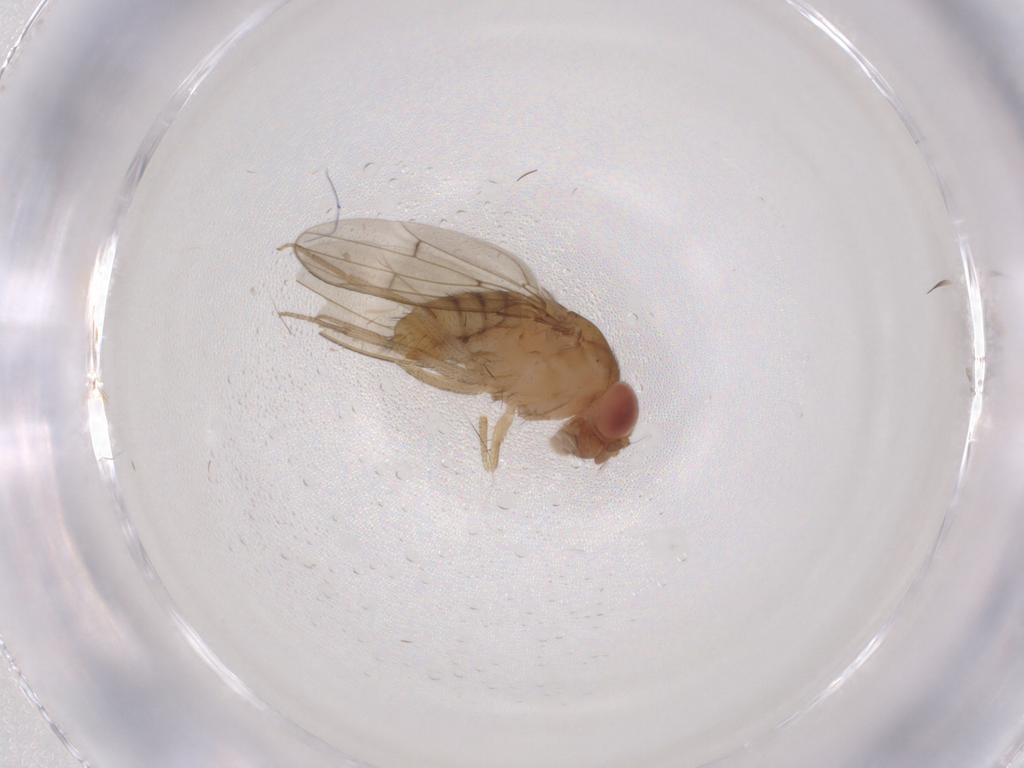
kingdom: Animalia
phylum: Arthropoda
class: Insecta
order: Diptera
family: Drosophilidae
